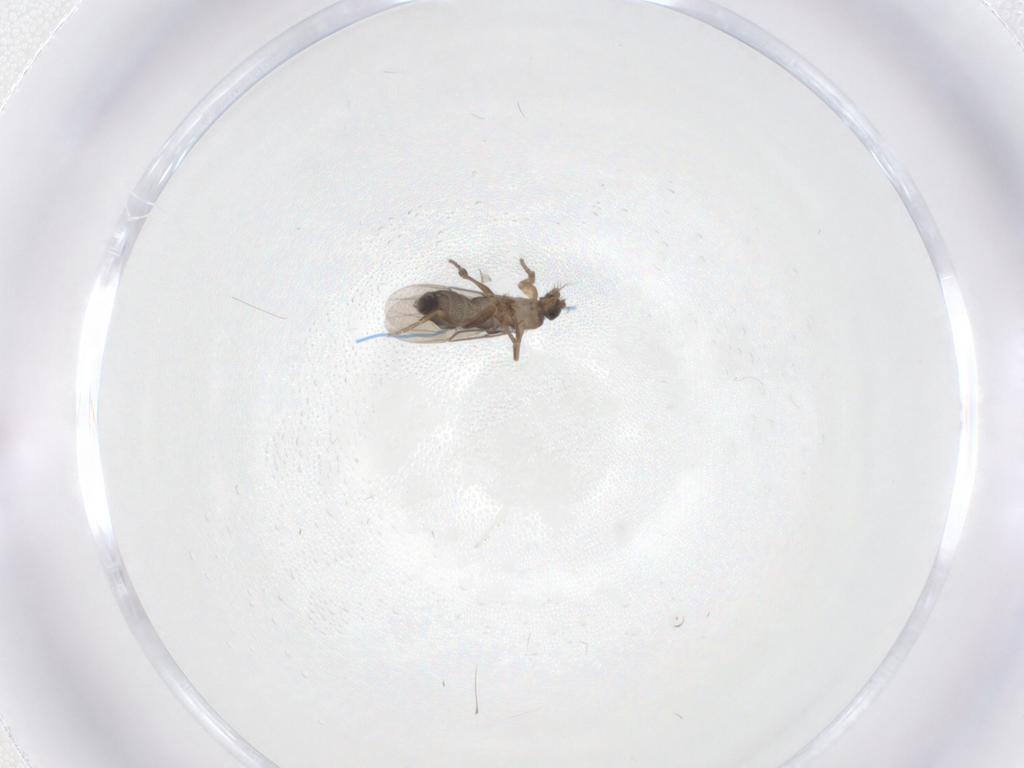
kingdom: Animalia
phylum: Arthropoda
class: Insecta
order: Diptera
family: Phoridae
